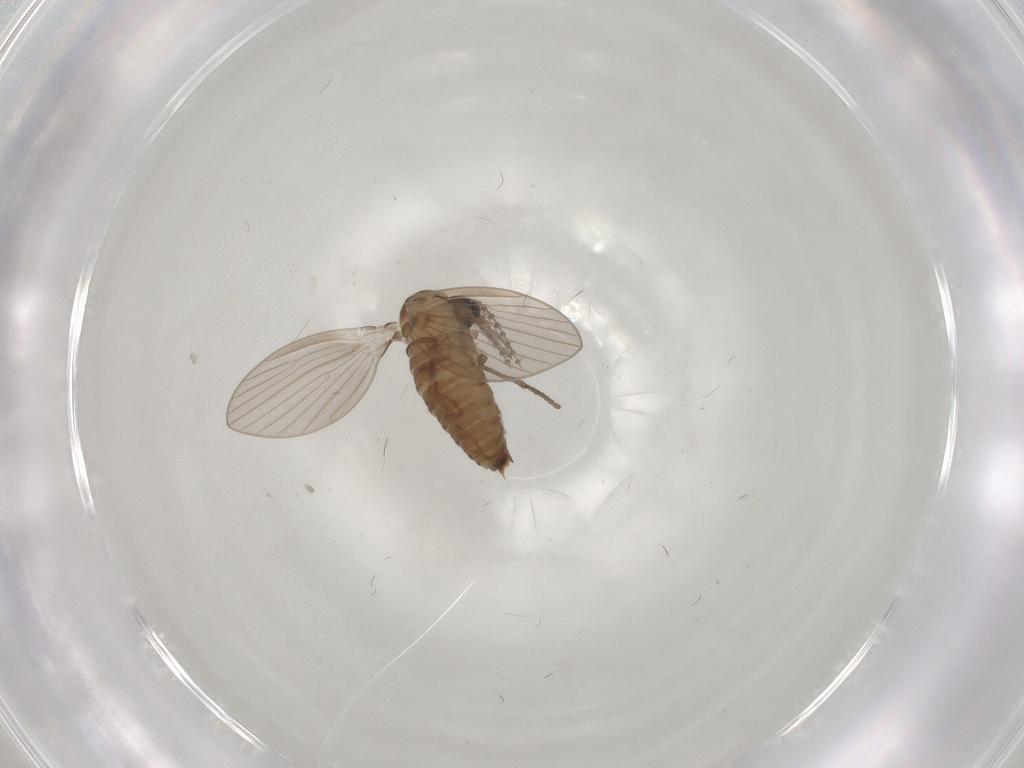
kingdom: Animalia
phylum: Arthropoda
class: Insecta
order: Diptera
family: Psychodidae
